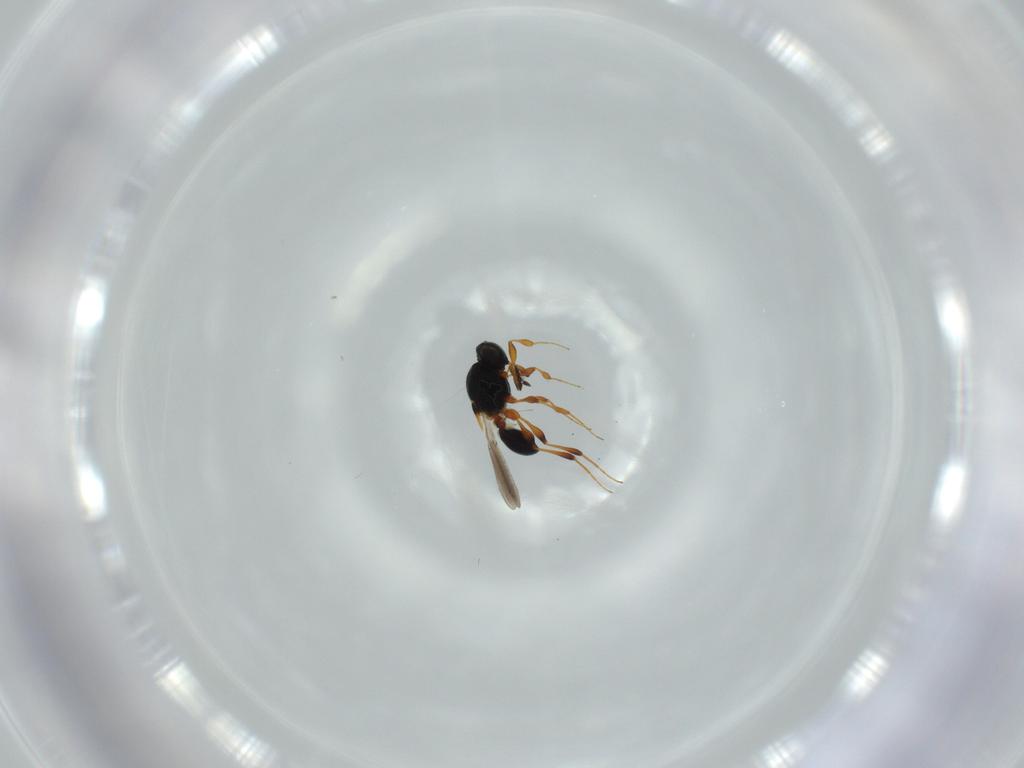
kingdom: Animalia
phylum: Arthropoda
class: Insecta
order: Hymenoptera
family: Platygastridae
